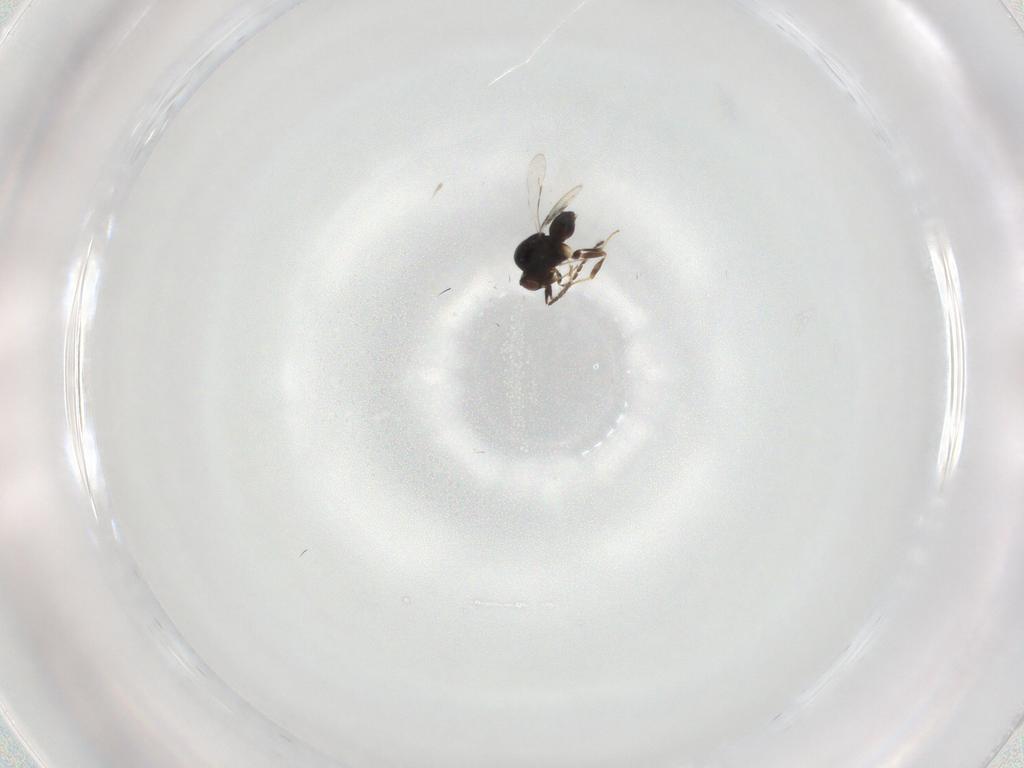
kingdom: Animalia
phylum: Arthropoda
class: Insecta
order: Hymenoptera
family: Ichneumonidae
